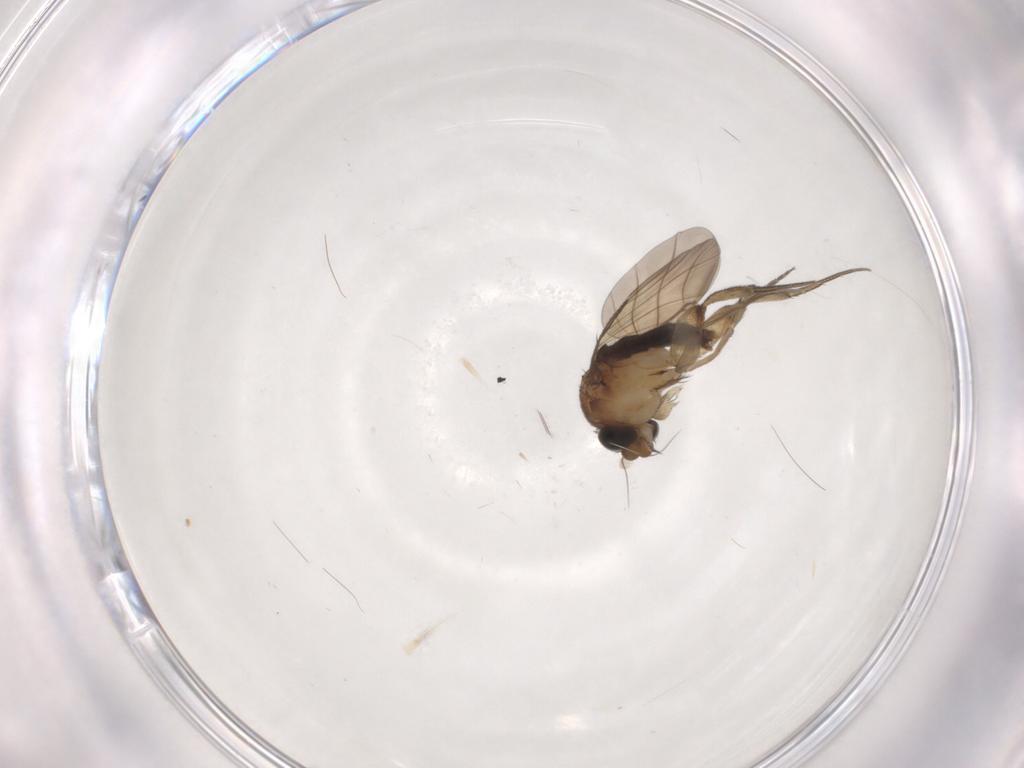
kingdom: Animalia
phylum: Arthropoda
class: Insecta
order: Diptera
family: Phoridae
